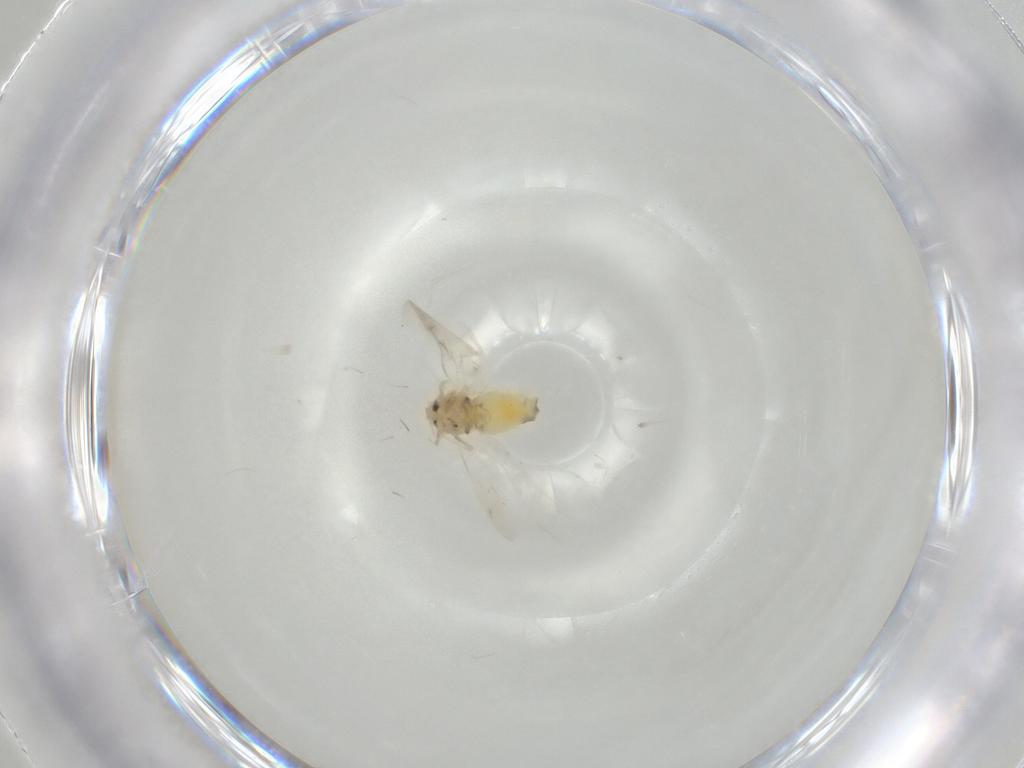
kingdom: Animalia
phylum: Arthropoda
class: Insecta
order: Hemiptera
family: Aleyrodidae
